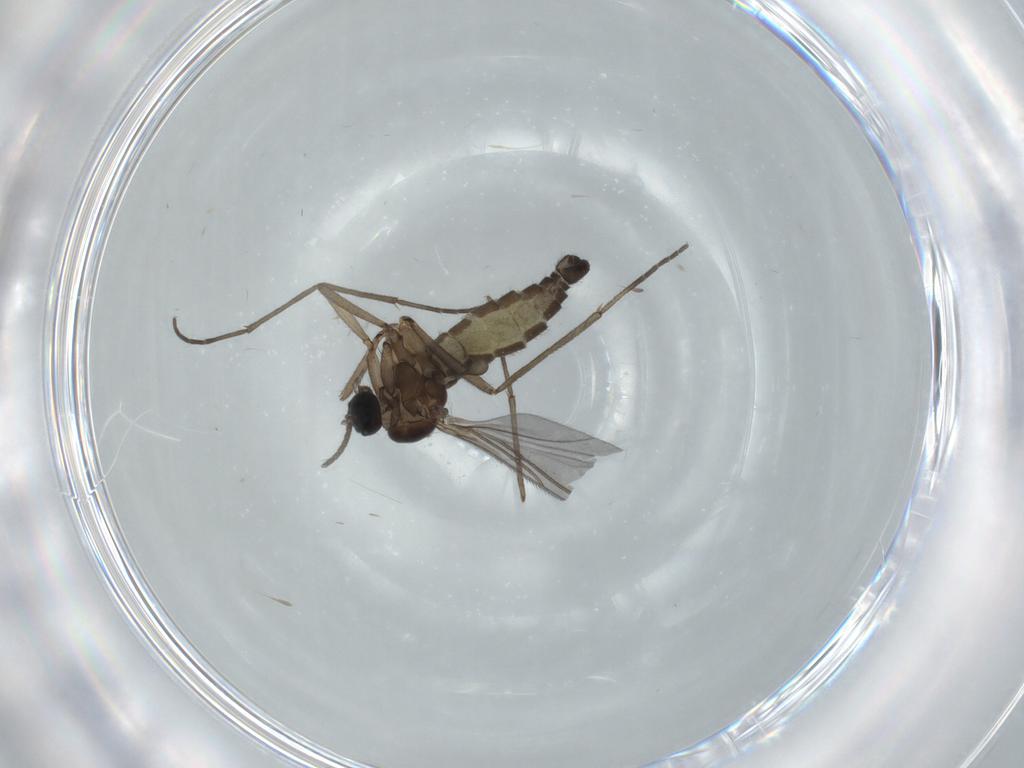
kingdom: Animalia
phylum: Arthropoda
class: Insecta
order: Diptera
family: Sciaridae
